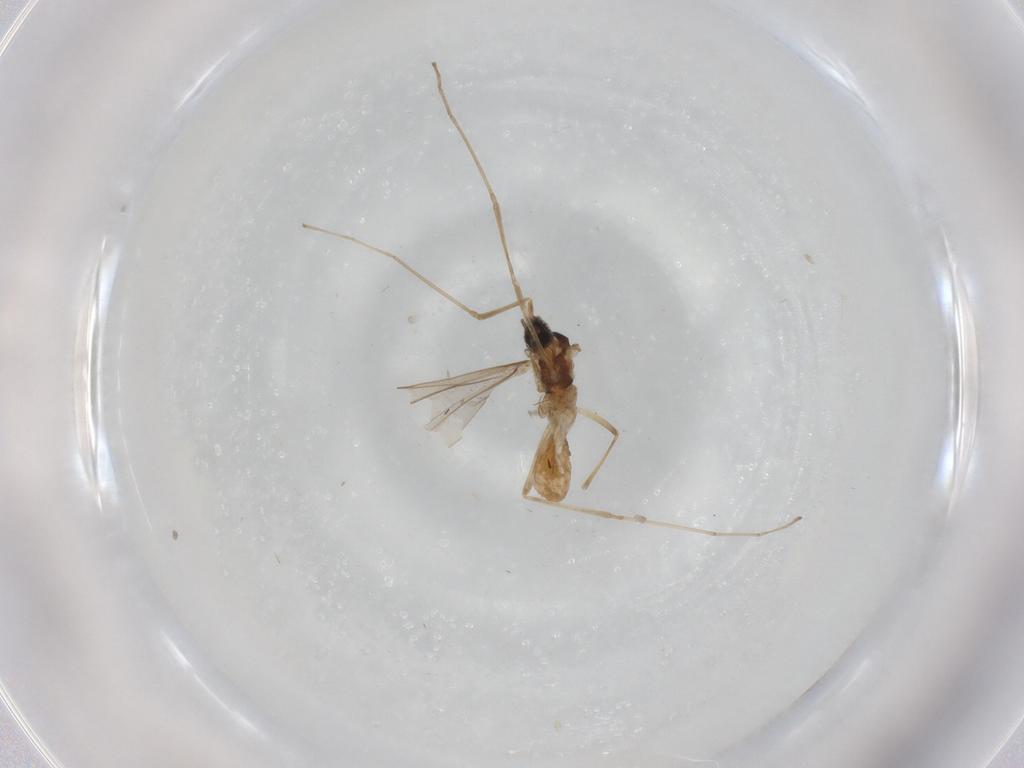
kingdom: Animalia
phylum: Arthropoda
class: Insecta
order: Diptera
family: Cecidomyiidae
